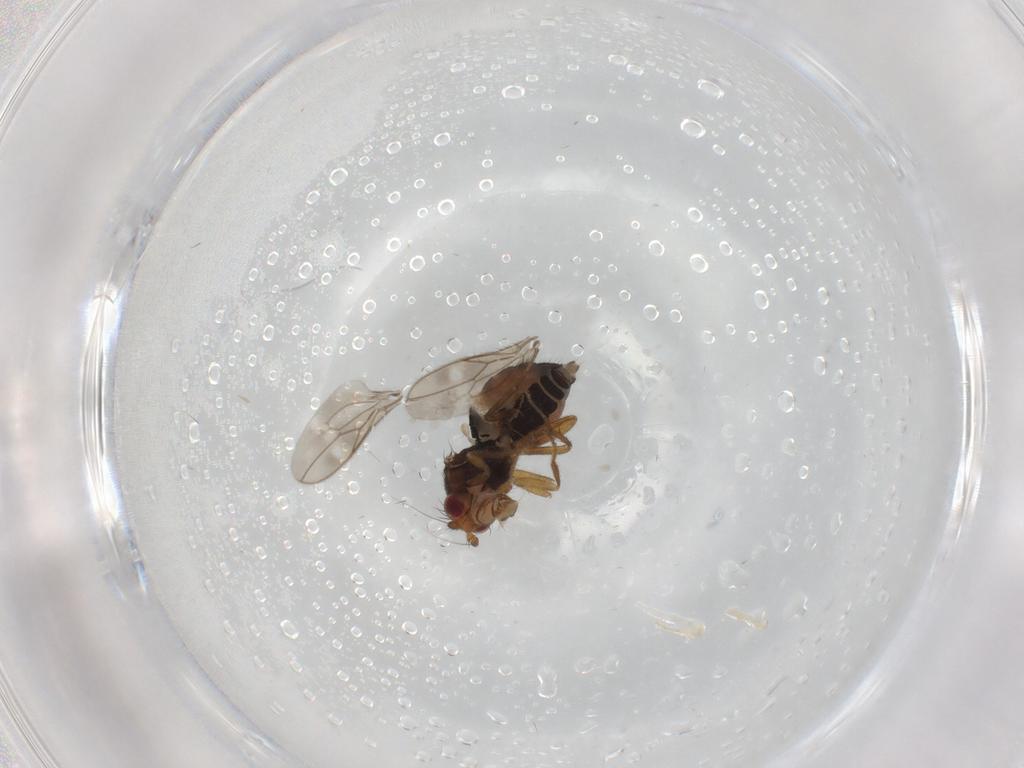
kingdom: Animalia
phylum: Arthropoda
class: Insecta
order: Diptera
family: Sphaeroceridae
